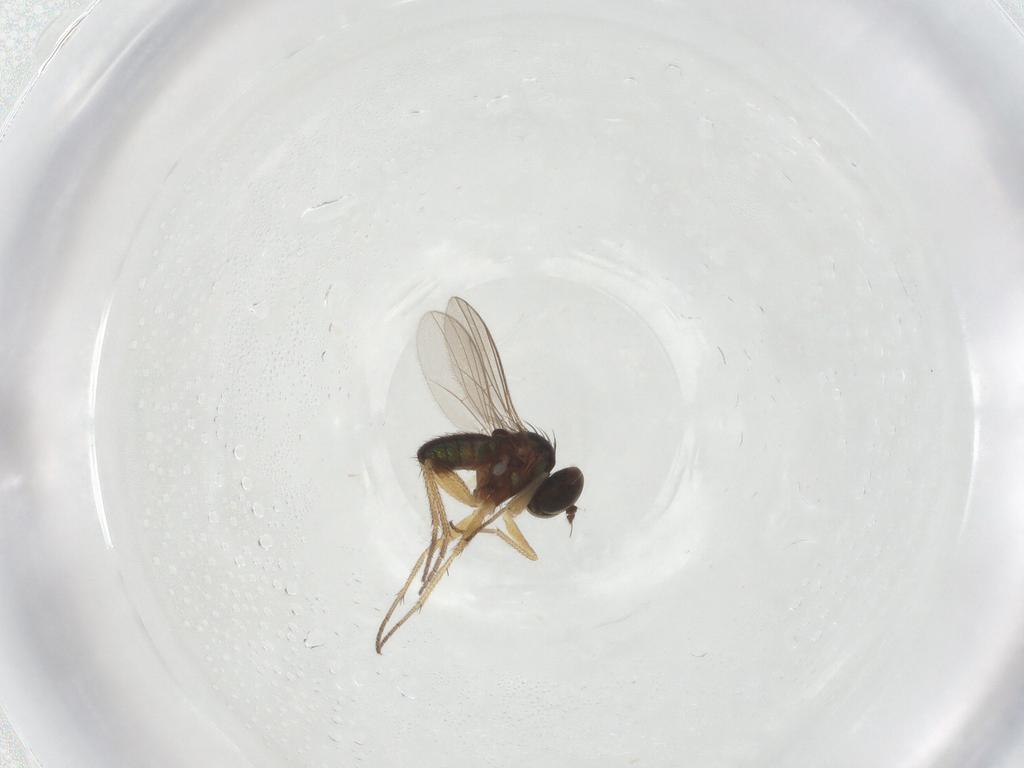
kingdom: Animalia
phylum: Arthropoda
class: Insecta
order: Diptera
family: Dolichopodidae
